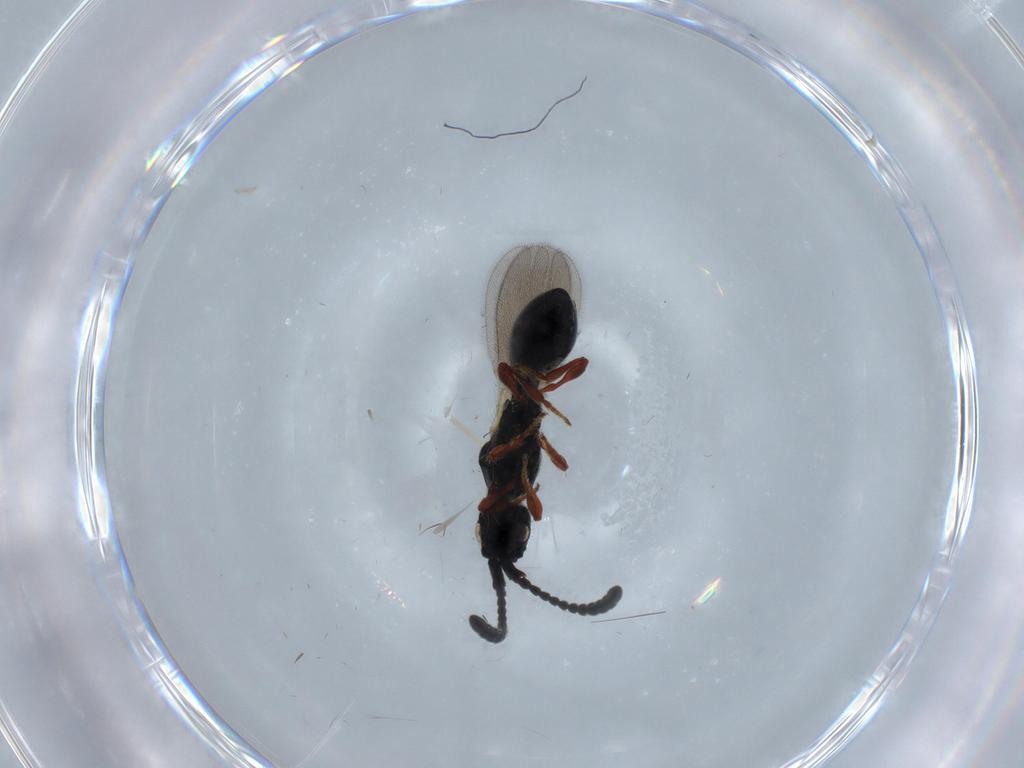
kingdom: Animalia
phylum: Arthropoda
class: Insecta
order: Hymenoptera
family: Diapriidae
